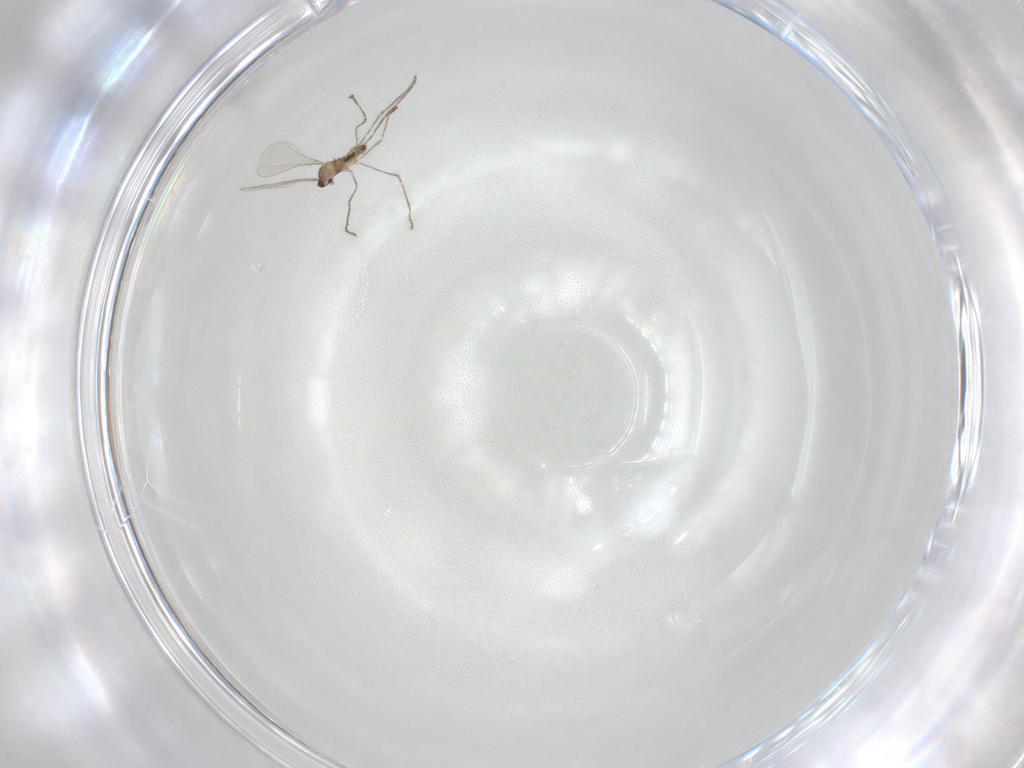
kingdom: Animalia
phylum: Arthropoda
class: Insecta
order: Diptera
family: Cecidomyiidae
